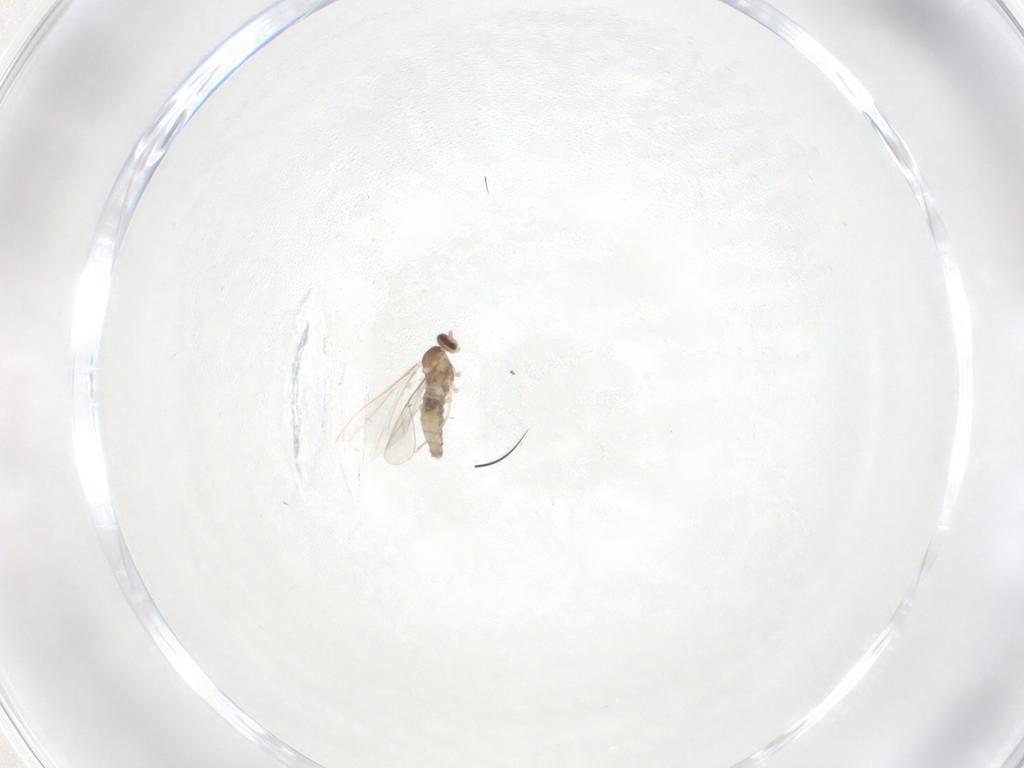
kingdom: Animalia
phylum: Arthropoda
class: Insecta
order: Diptera
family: Cecidomyiidae
